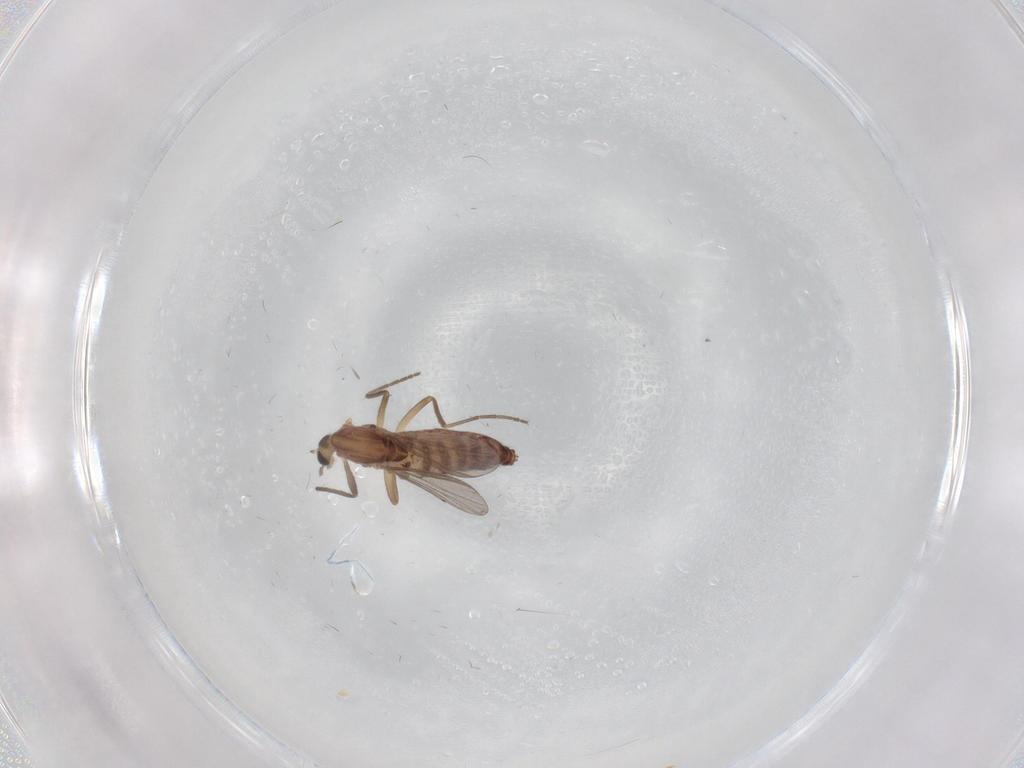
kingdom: Animalia
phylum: Arthropoda
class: Insecta
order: Diptera
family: Chironomidae
